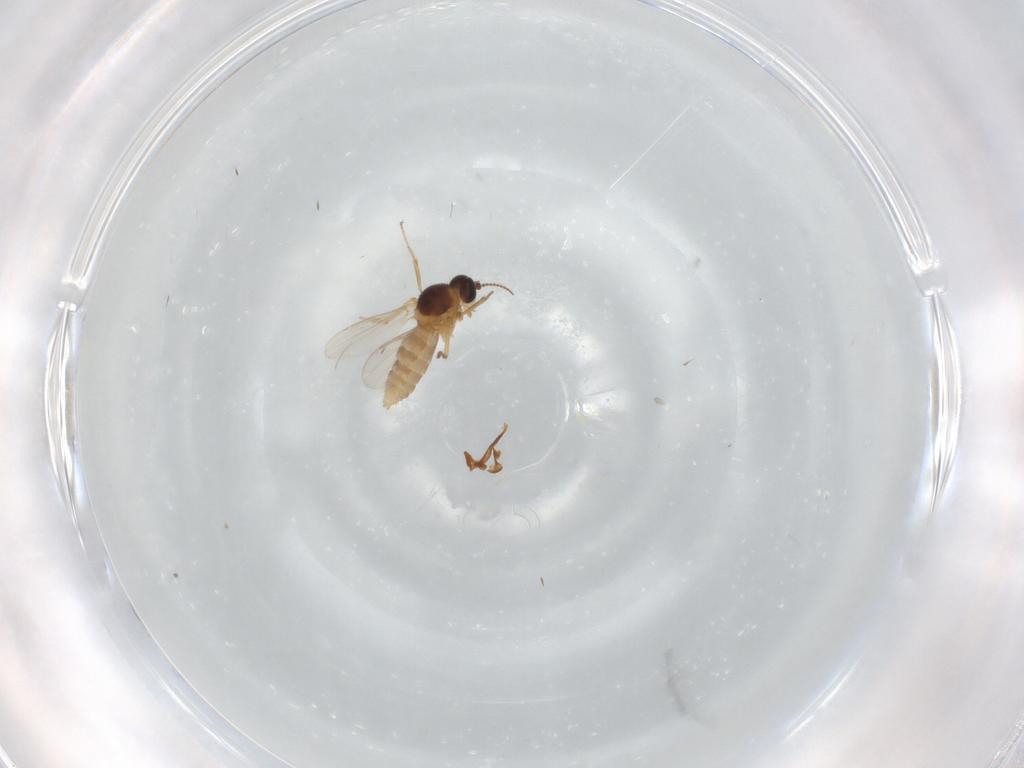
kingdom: Animalia
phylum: Arthropoda
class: Insecta
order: Diptera
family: Ceratopogonidae
